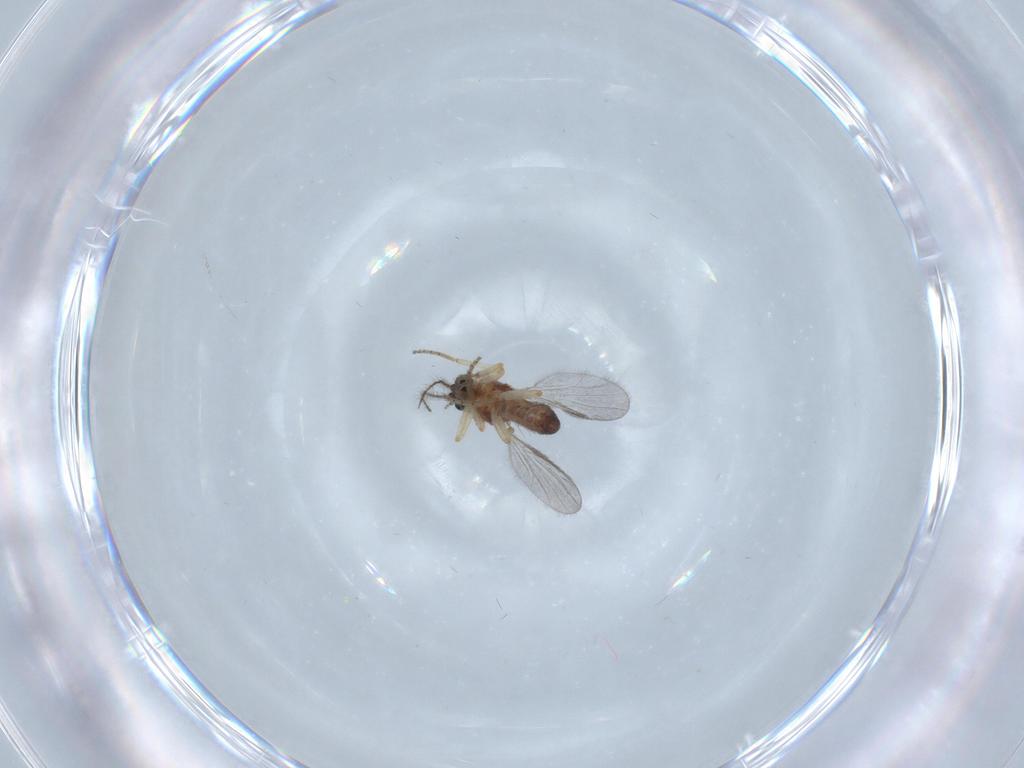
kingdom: Animalia
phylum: Arthropoda
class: Insecta
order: Diptera
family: Ceratopogonidae
